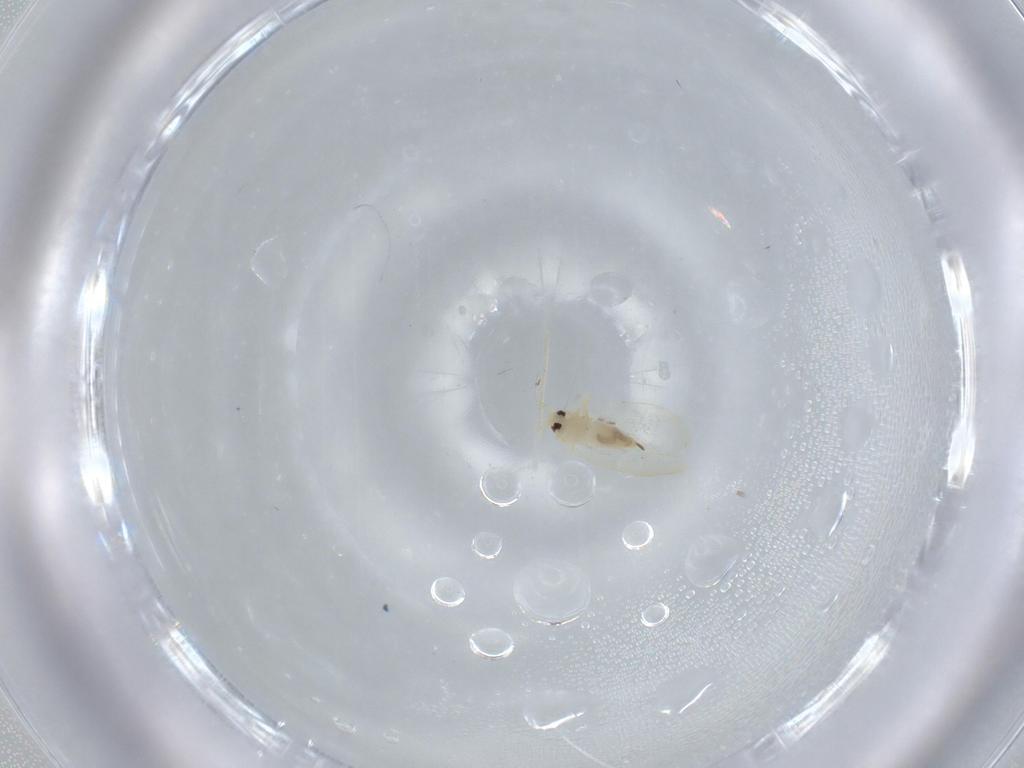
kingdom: Animalia
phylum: Arthropoda
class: Insecta
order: Hemiptera
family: Aleyrodidae
